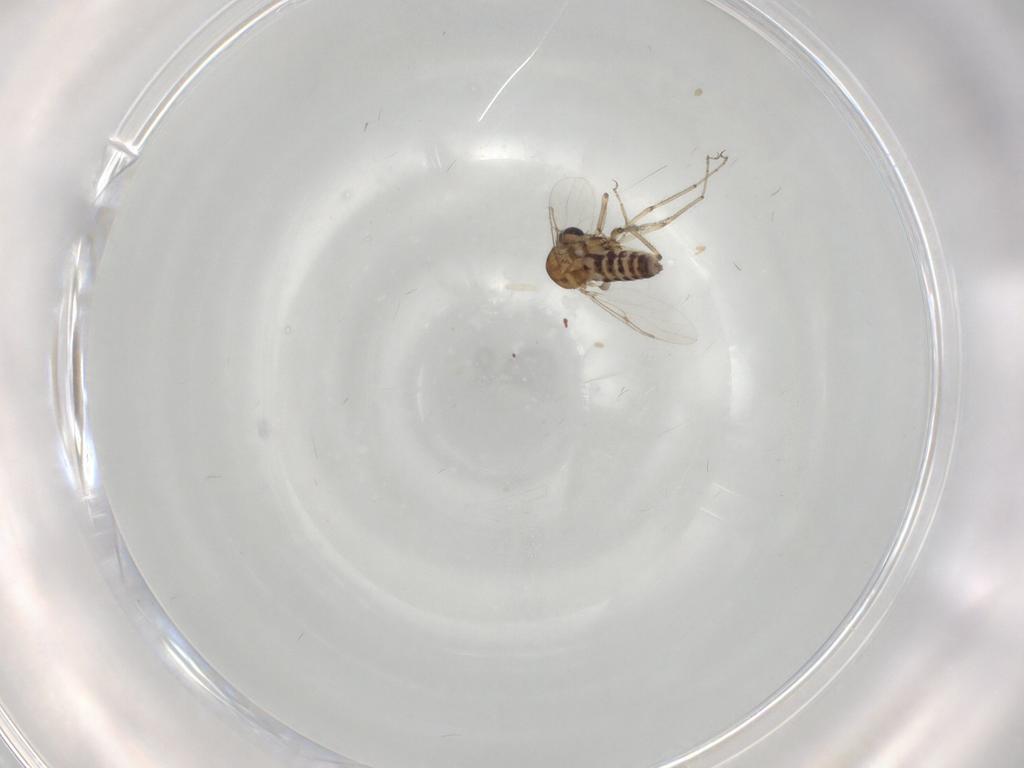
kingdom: Animalia
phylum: Arthropoda
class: Insecta
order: Diptera
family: Ceratopogonidae
